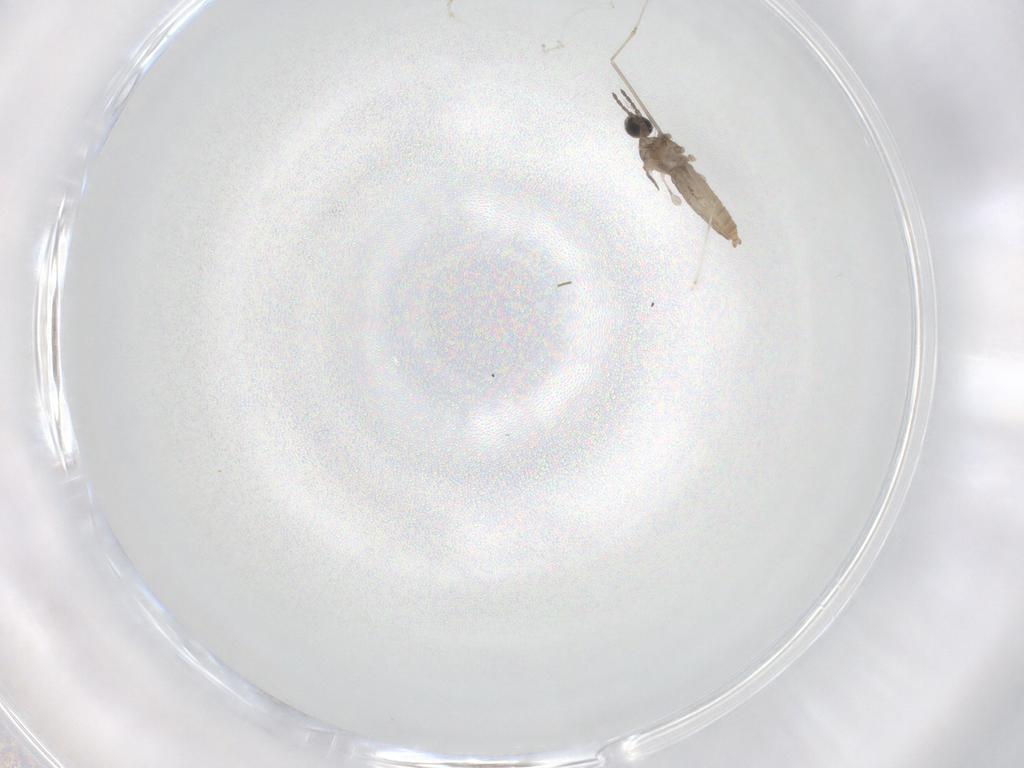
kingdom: Animalia
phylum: Arthropoda
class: Insecta
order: Diptera
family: Cecidomyiidae
